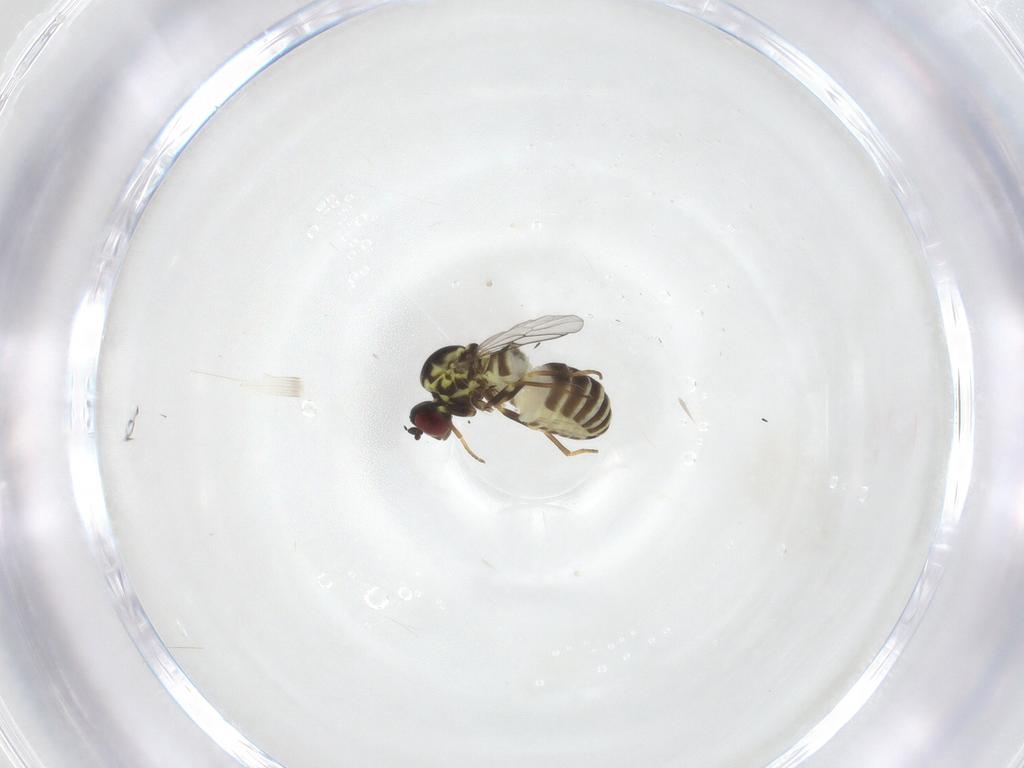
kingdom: Animalia
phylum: Arthropoda
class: Insecta
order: Diptera
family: Mythicomyiidae
